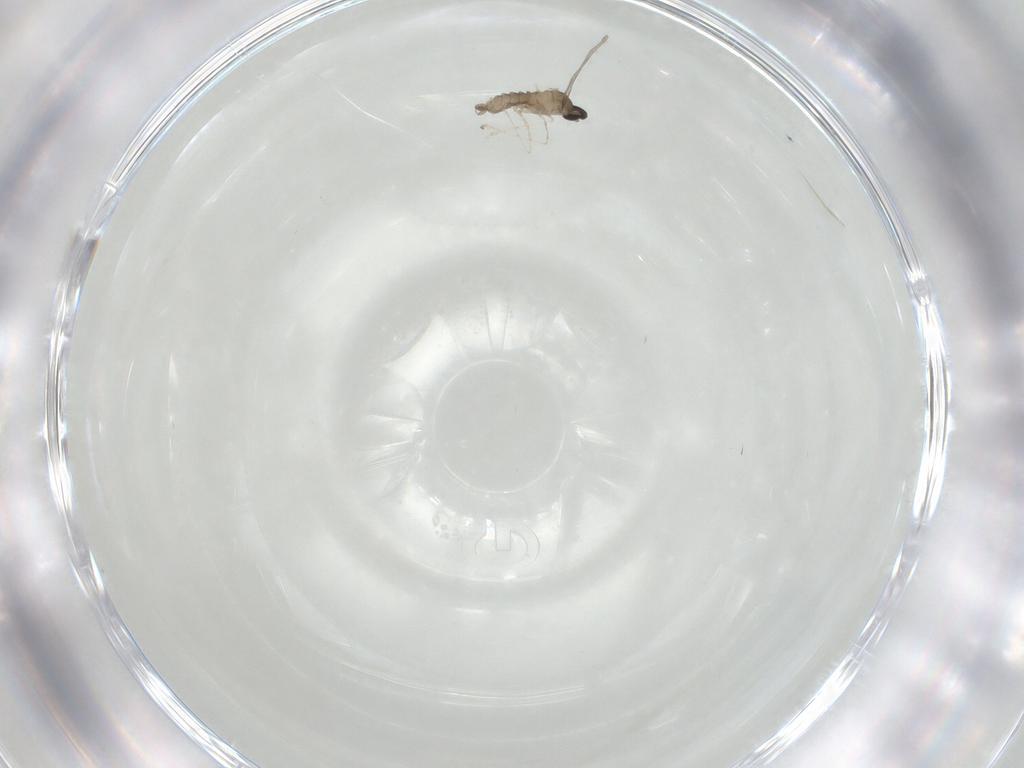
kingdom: Animalia
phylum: Arthropoda
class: Insecta
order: Diptera
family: Cecidomyiidae
